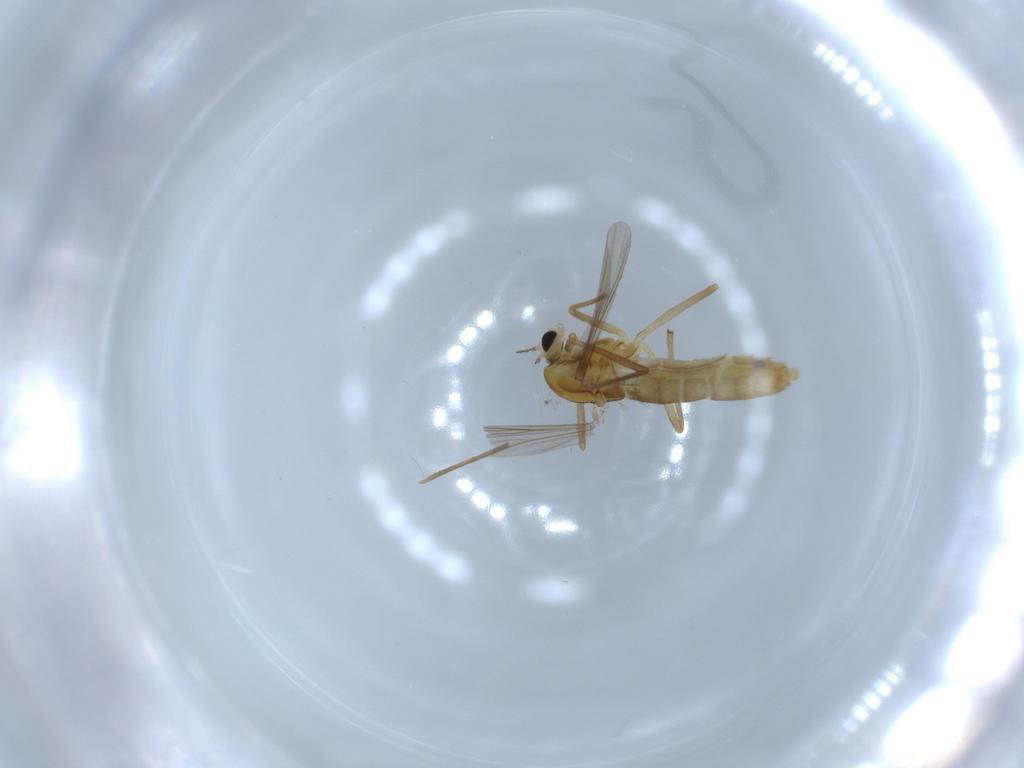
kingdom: Animalia
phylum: Arthropoda
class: Insecta
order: Diptera
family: Chironomidae
